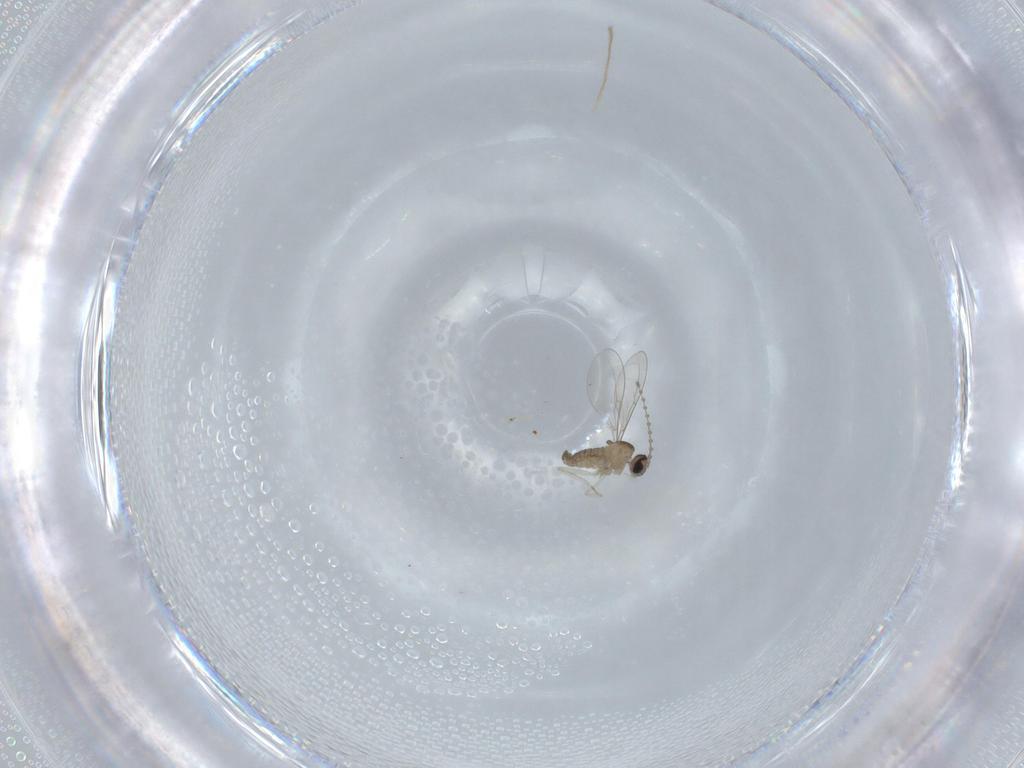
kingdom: Animalia
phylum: Arthropoda
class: Insecta
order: Diptera
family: Cecidomyiidae
